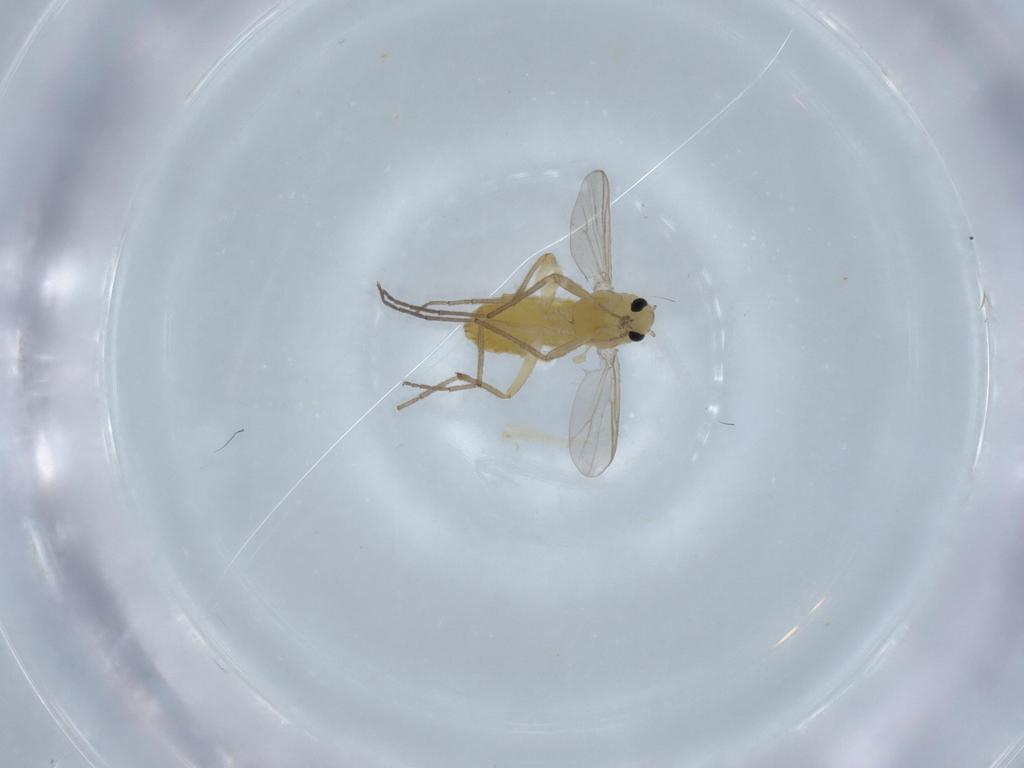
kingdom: Animalia
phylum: Arthropoda
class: Insecta
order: Diptera
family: Chironomidae
